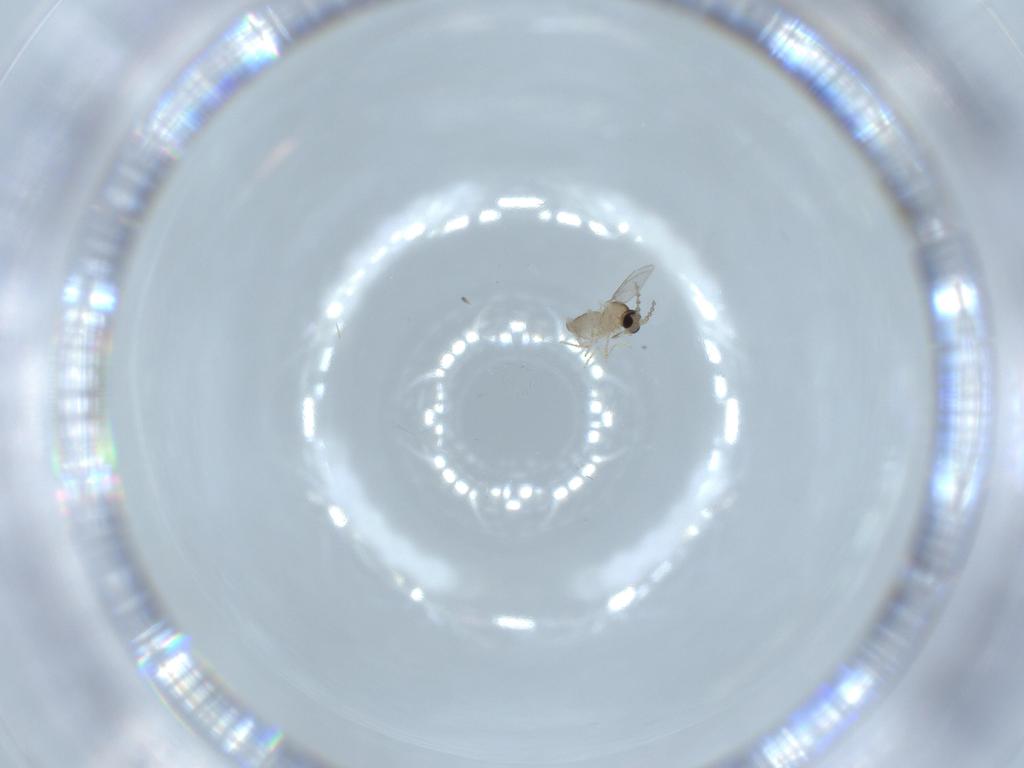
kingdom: Animalia
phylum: Arthropoda
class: Insecta
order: Diptera
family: Cecidomyiidae
